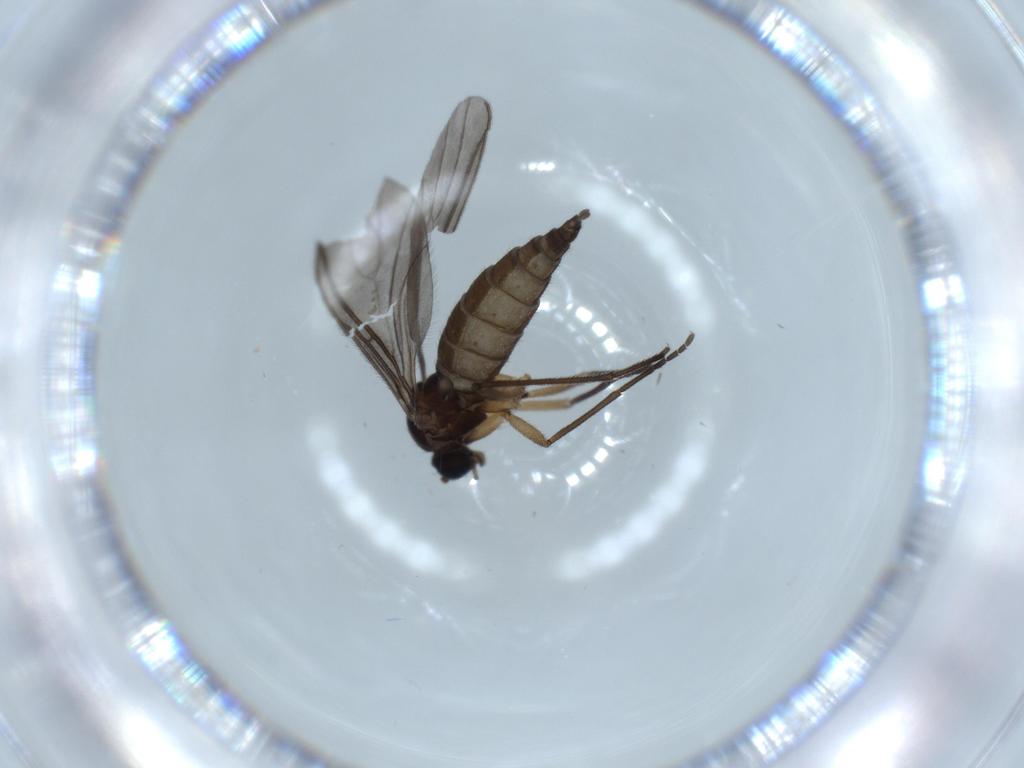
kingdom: Animalia
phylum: Arthropoda
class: Insecta
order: Diptera
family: Sciaridae
